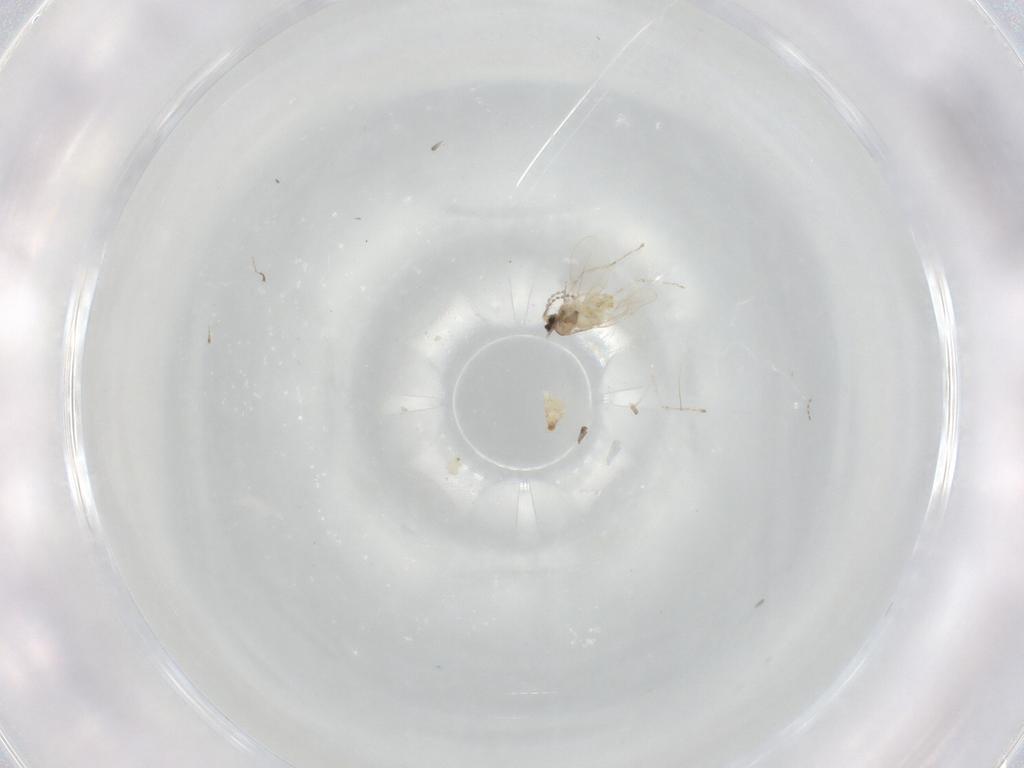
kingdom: Animalia
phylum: Arthropoda
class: Insecta
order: Diptera
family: Cecidomyiidae
